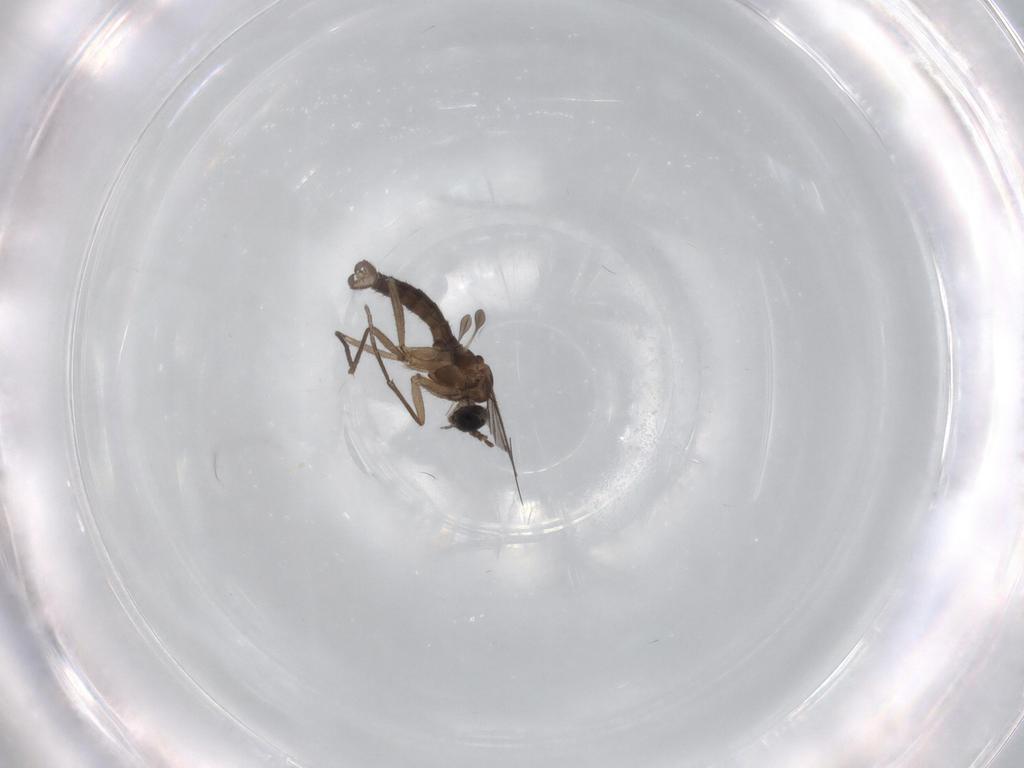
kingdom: Animalia
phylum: Arthropoda
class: Insecta
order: Diptera
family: Sciaridae
